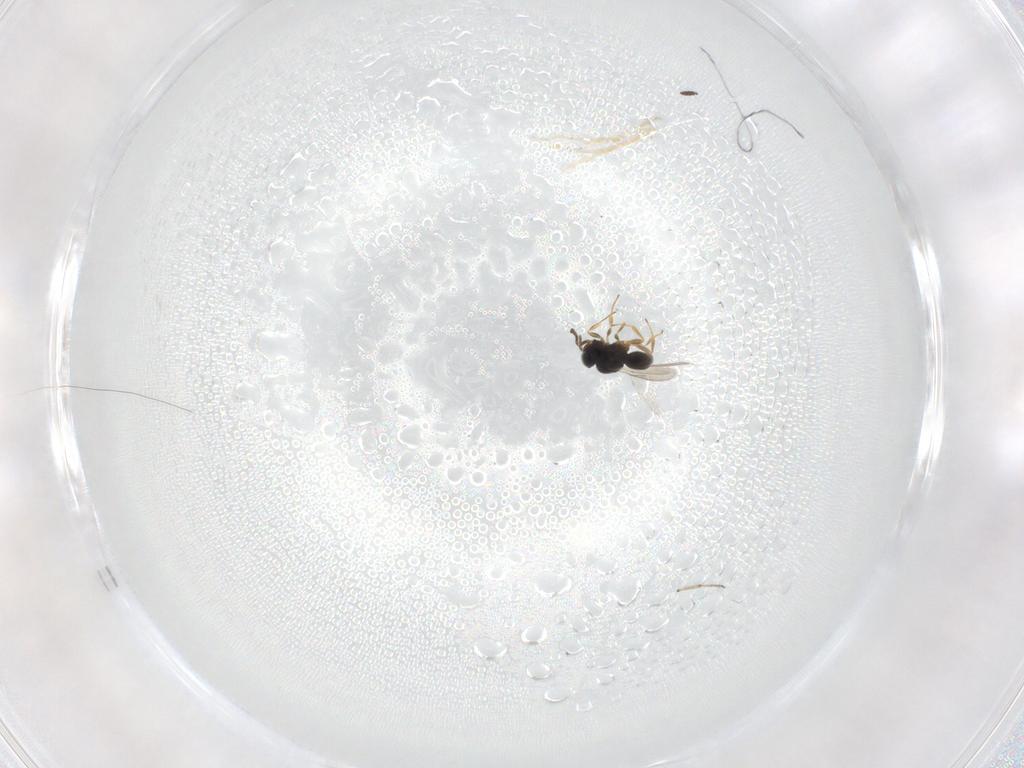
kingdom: Animalia
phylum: Arthropoda
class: Insecta
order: Hymenoptera
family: Scelionidae
